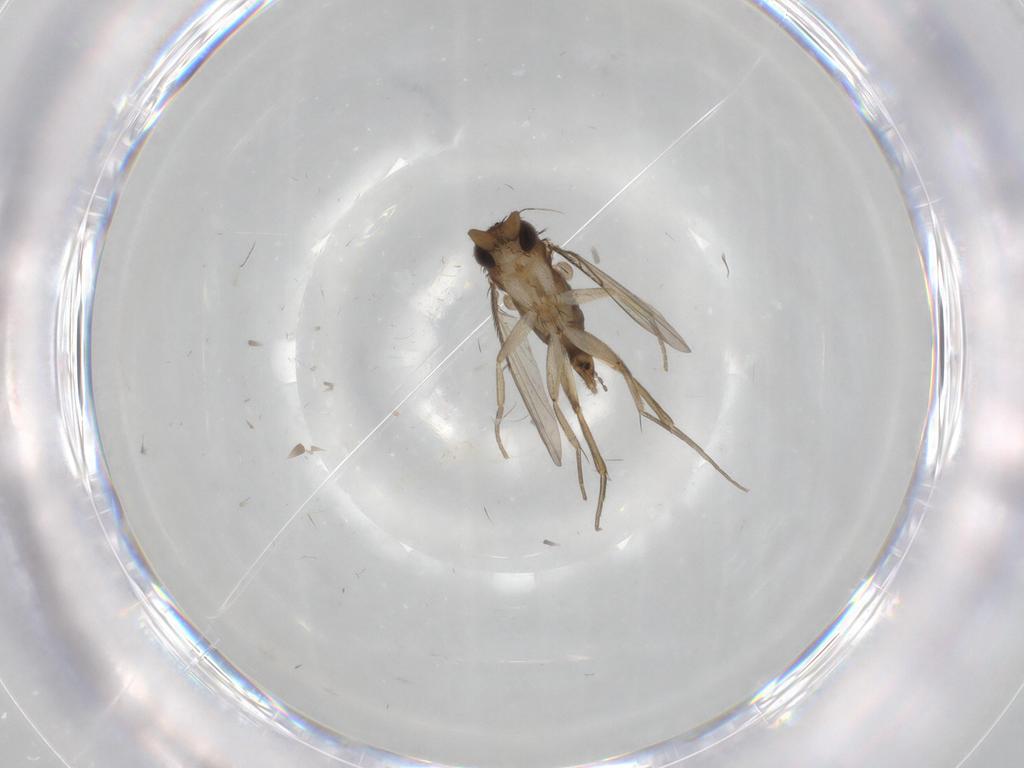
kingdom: Animalia
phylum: Arthropoda
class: Insecta
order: Diptera
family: Phoridae
